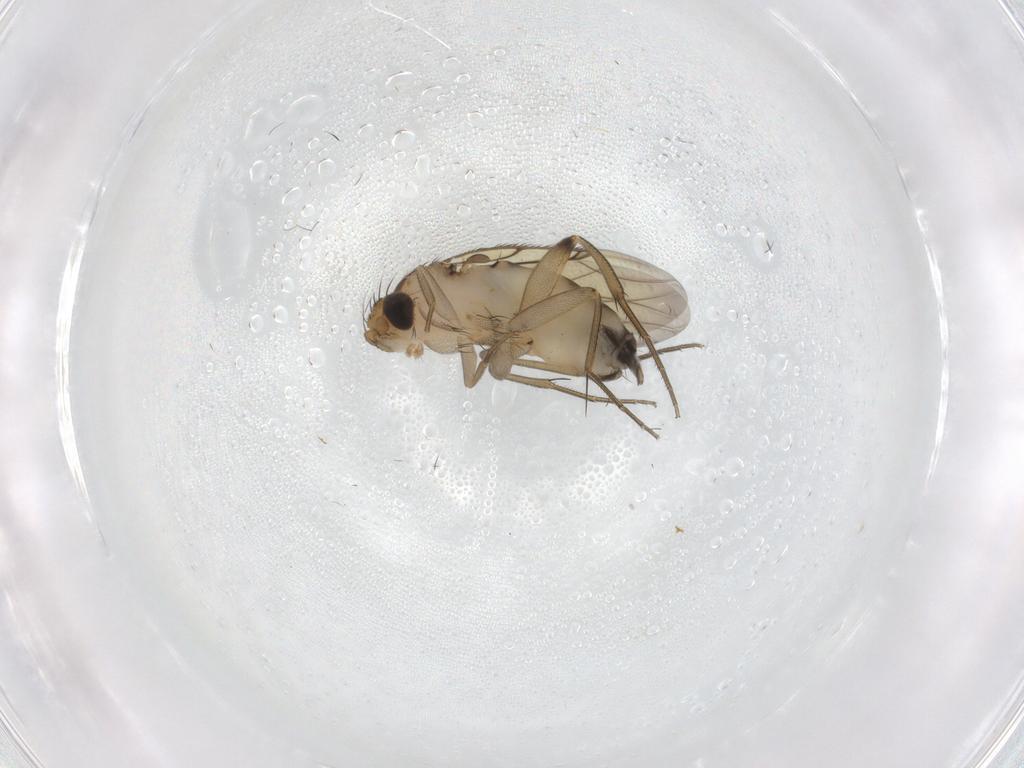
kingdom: Animalia
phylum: Arthropoda
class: Insecta
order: Diptera
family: Phoridae
